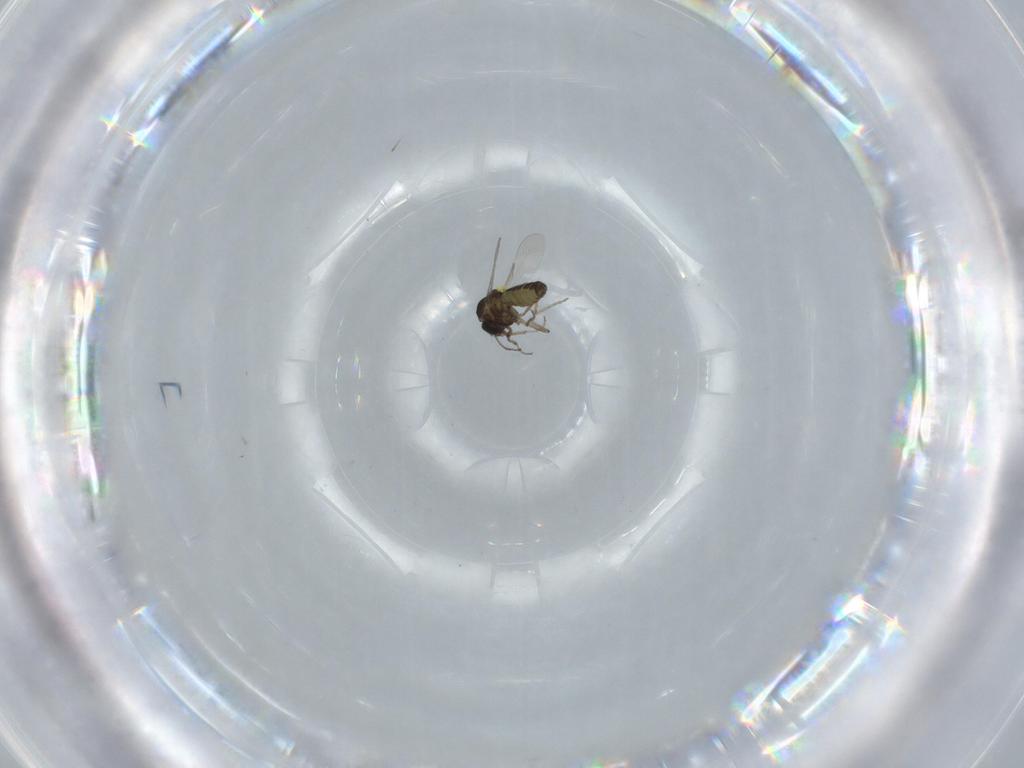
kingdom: Animalia
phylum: Arthropoda
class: Insecta
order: Diptera
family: Ceratopogonidae
